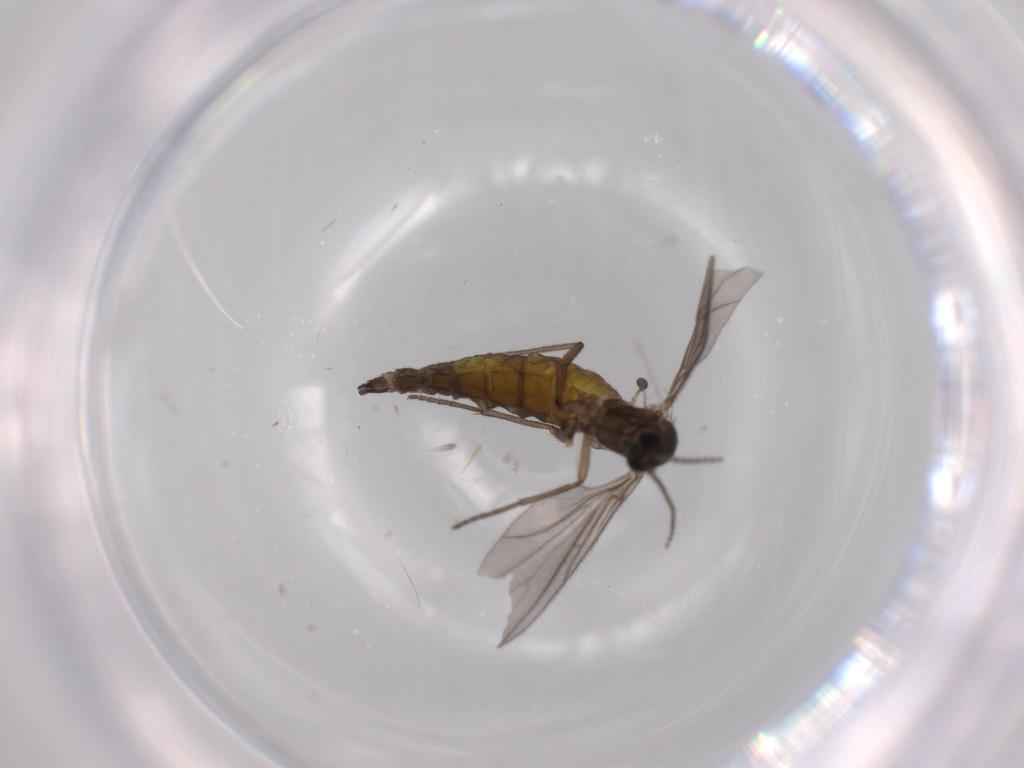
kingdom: Animalia
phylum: Arthropoda
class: Insecta
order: Diptera
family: Sciaridae
